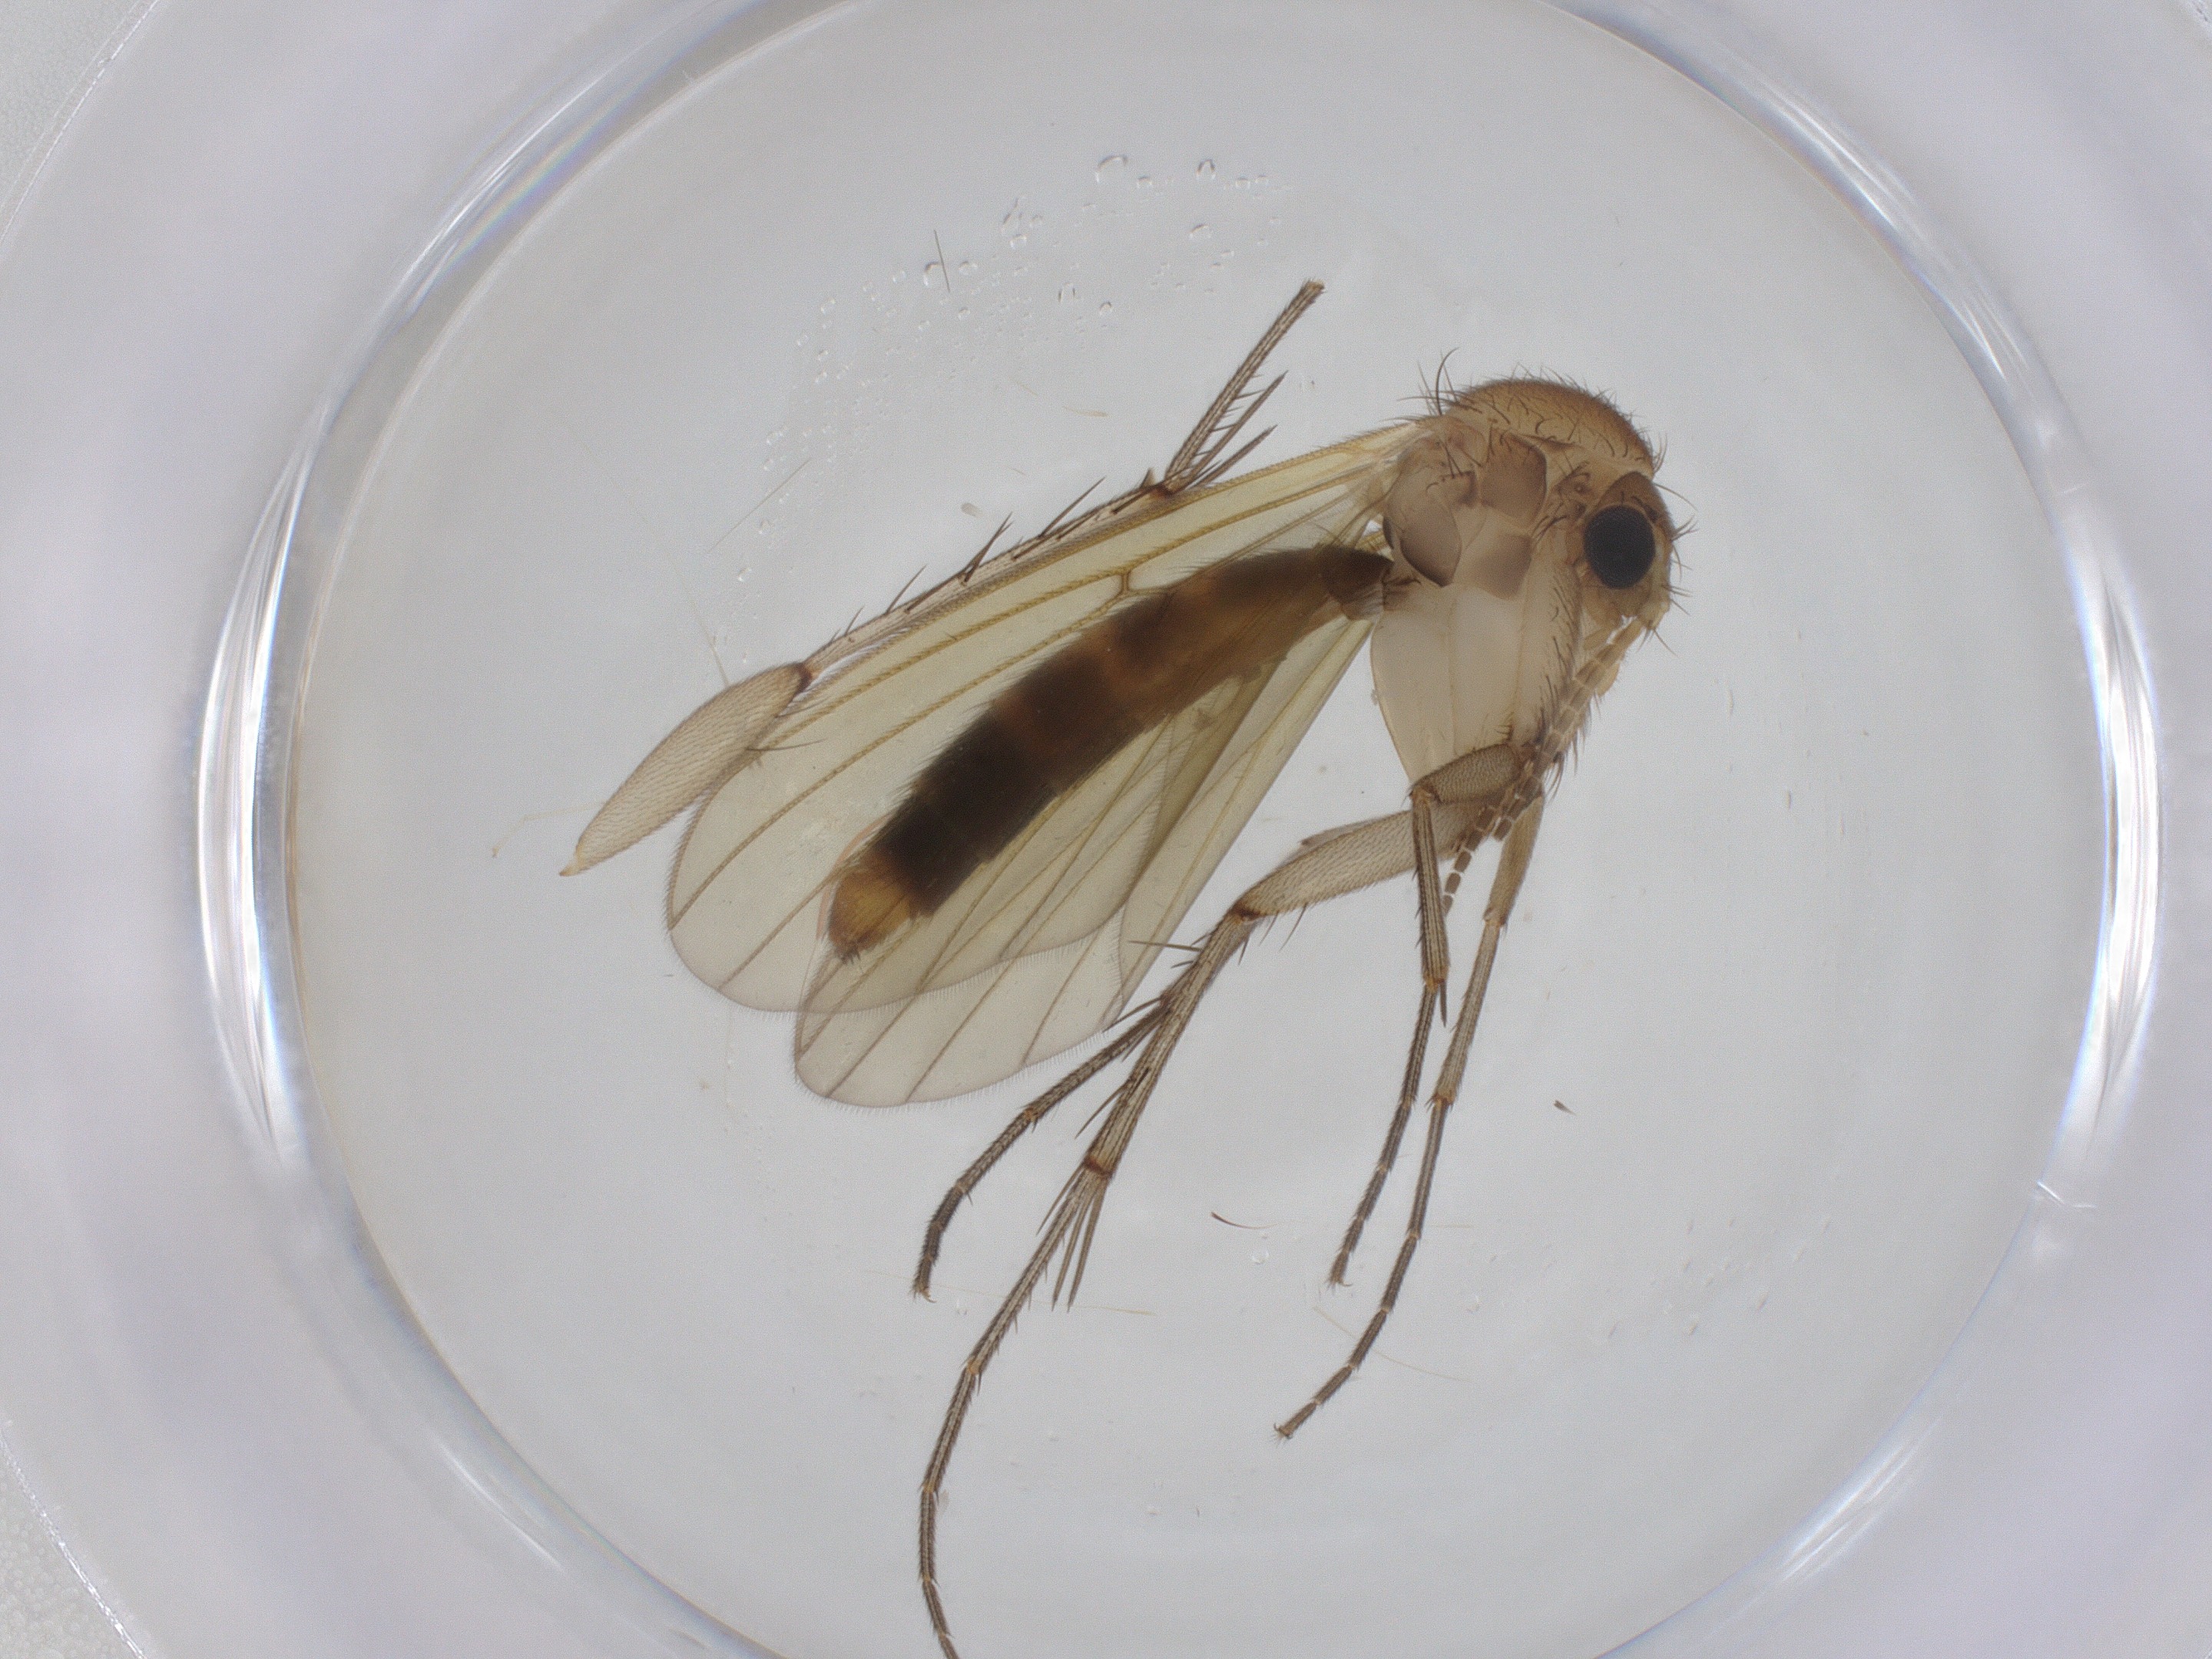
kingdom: Animalia
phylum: Arthropoda
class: Insecta
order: Diptera
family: Mycetophilidae
